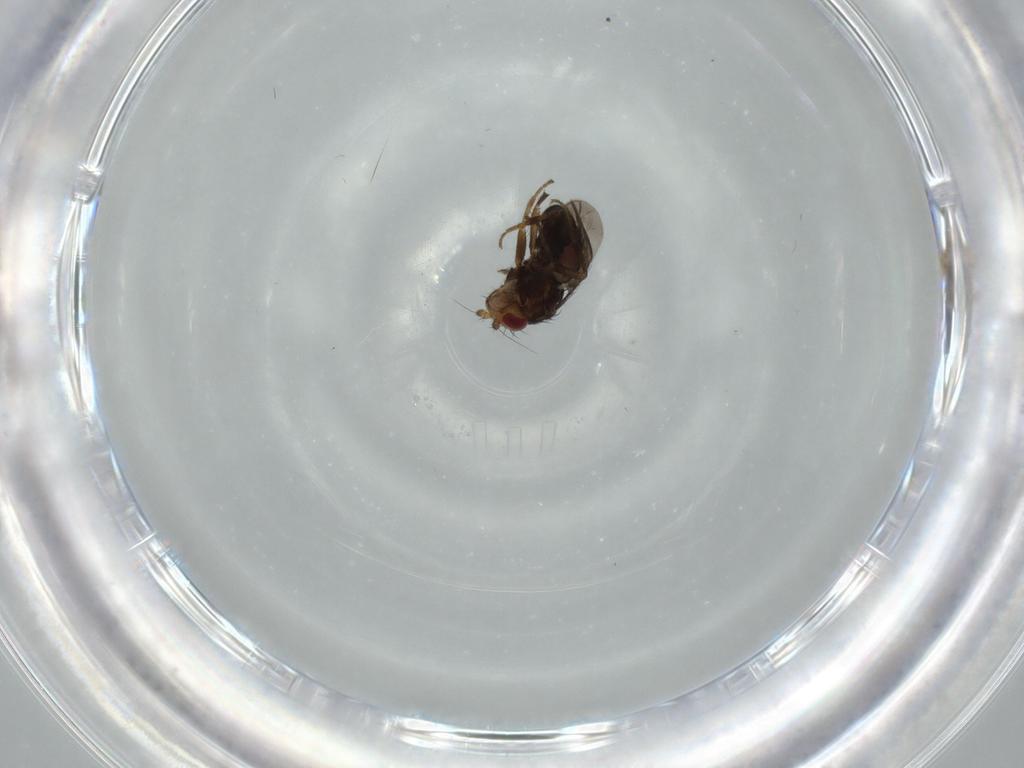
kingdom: Animalia
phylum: Arthropoda
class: Insecta
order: Diptera
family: Sphaeroceridae
